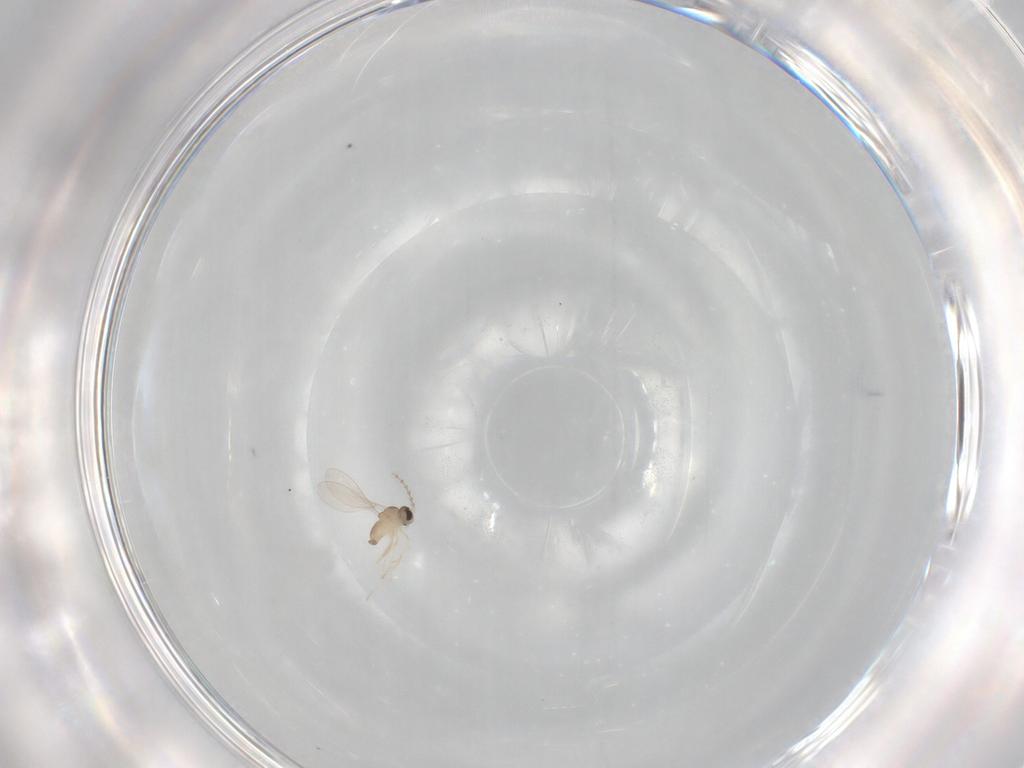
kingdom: Animalia
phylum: Arthropoda
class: Insecta
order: Diptera
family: Cecidomyiidae
